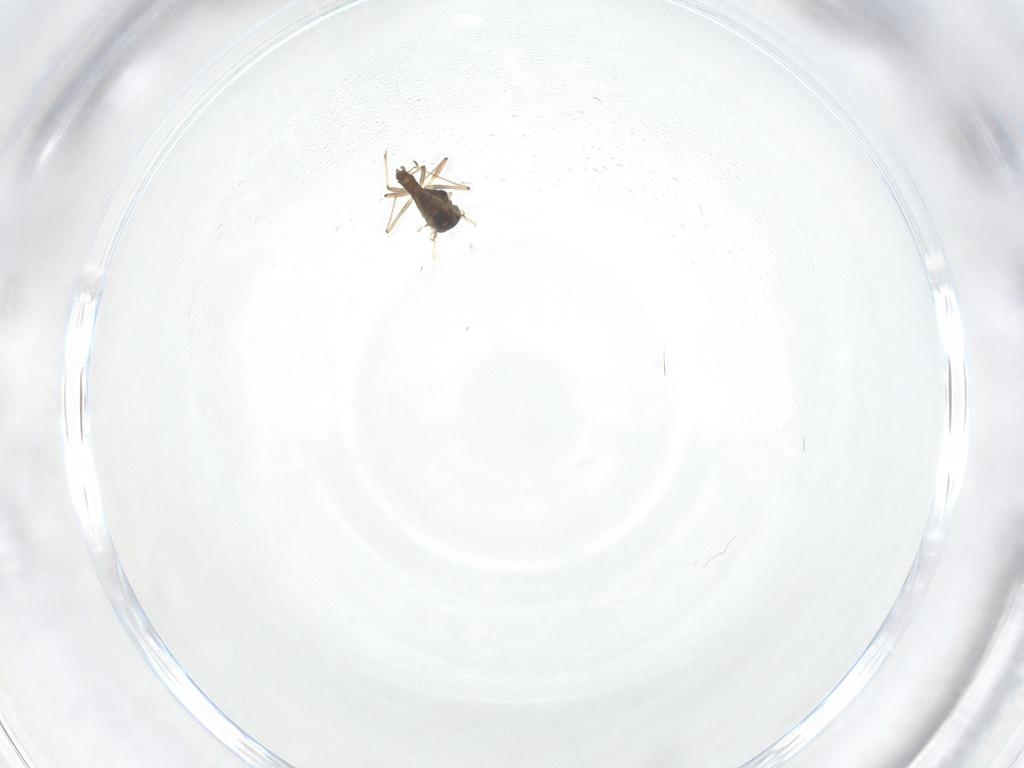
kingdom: Animalia
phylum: Arthropoda
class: Insecta
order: Diptera
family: Chironomidae
